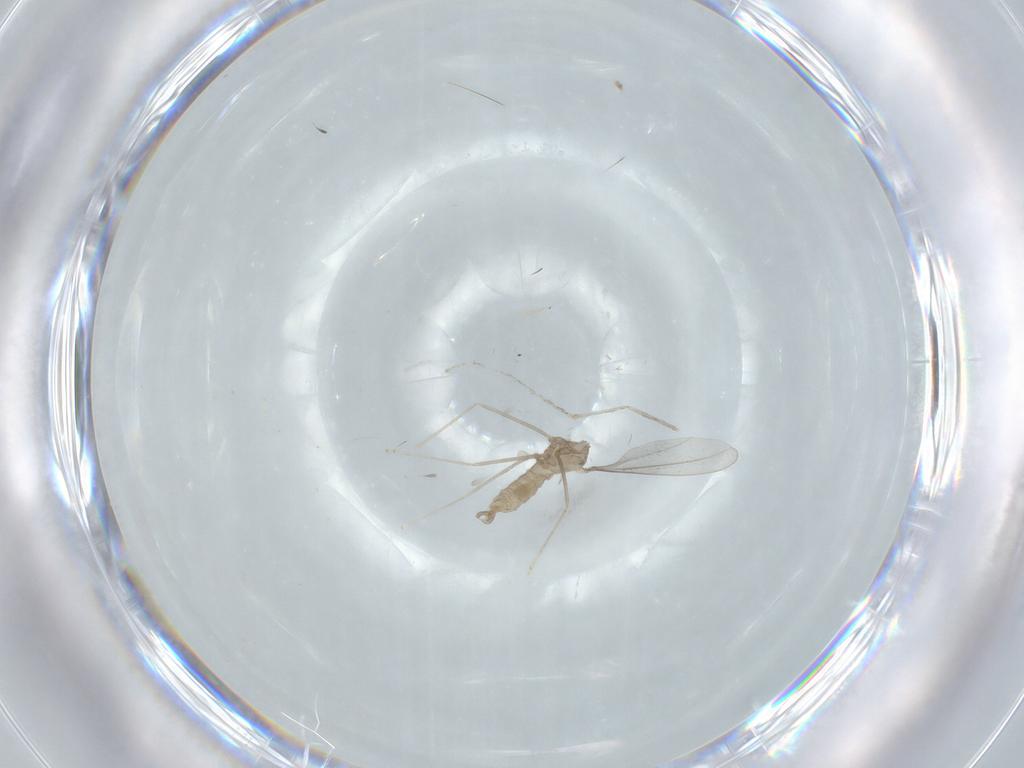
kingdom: Animalia
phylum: Arthropoda
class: Insecta
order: Diptera
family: Cecidomyiidae
